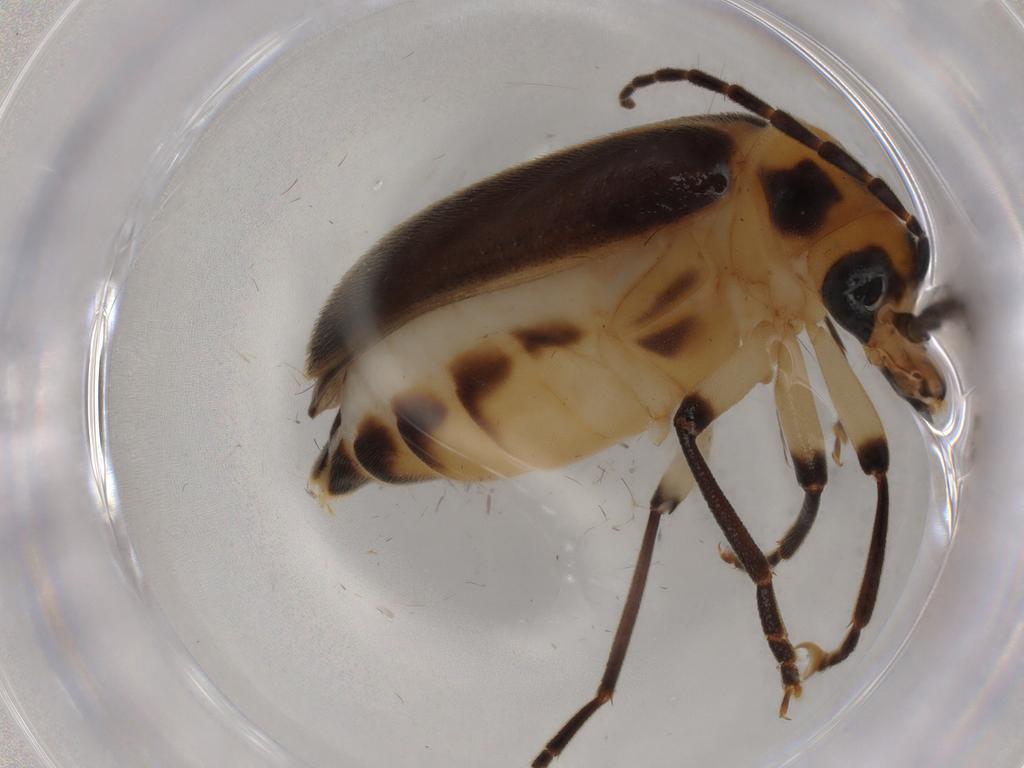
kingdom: Animalia
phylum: Arthropoda
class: Insecta
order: Coleoptera
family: Oedemeridae
